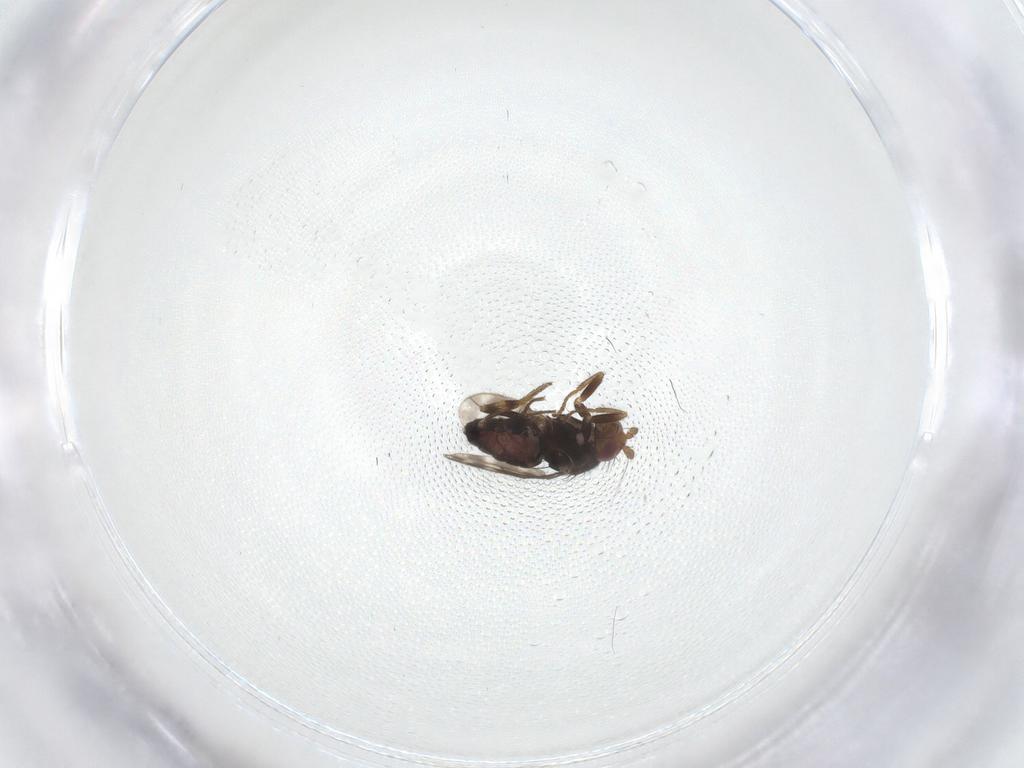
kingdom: Animalia
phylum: Arthropoda
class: Insecta
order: Diptera
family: Sphaeroceridae
